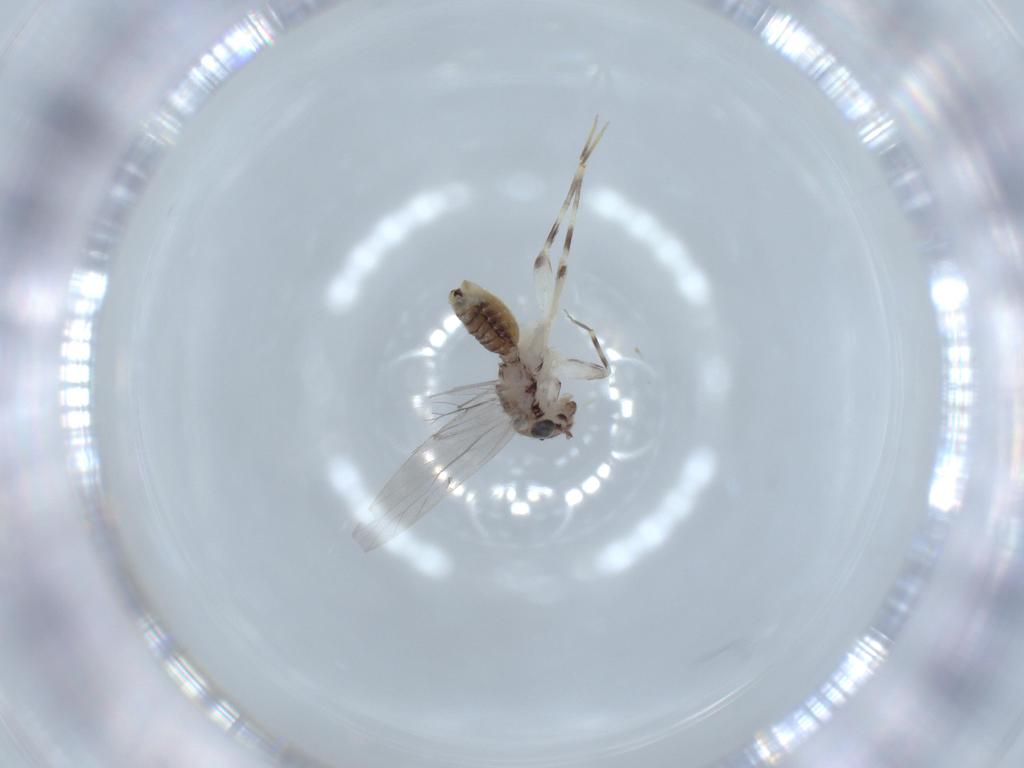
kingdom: Animalia
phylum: Arthropoda
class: Insecta
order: Psocodea
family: Lepidopsocidae
